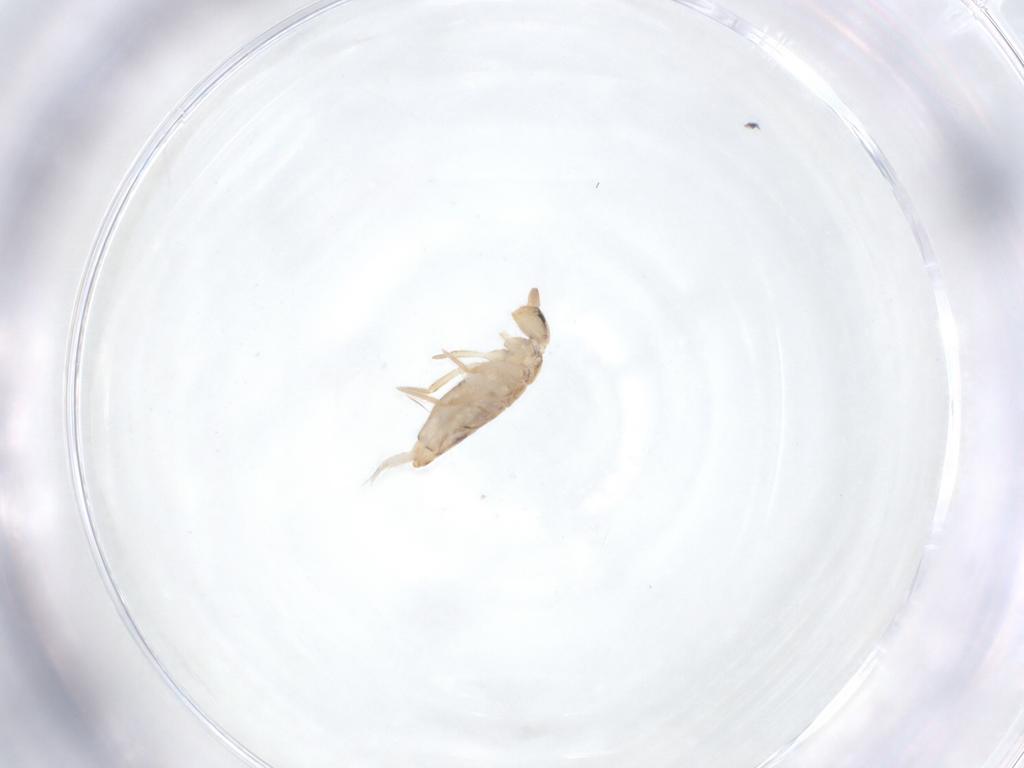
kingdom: Animalia
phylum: Arthropoda
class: Collembola
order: Entomobryomorpha
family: Entomobryidae
